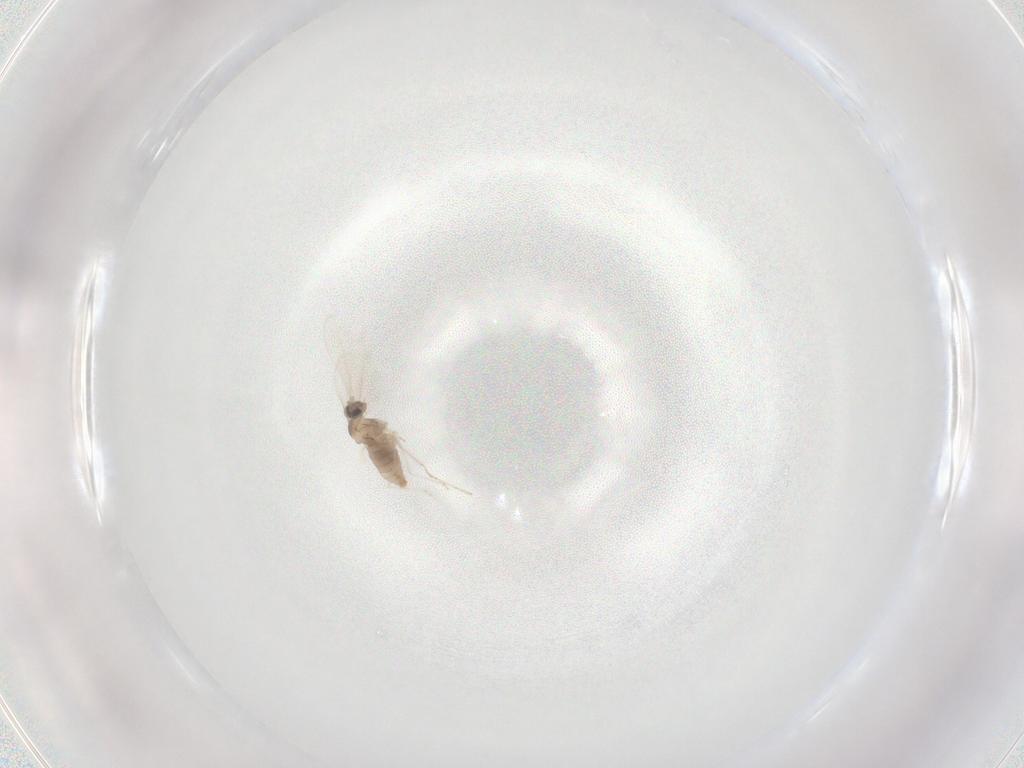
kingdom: Animalia
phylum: Arthropoda
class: Insecta
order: Diptera
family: Cecidomyiidae
